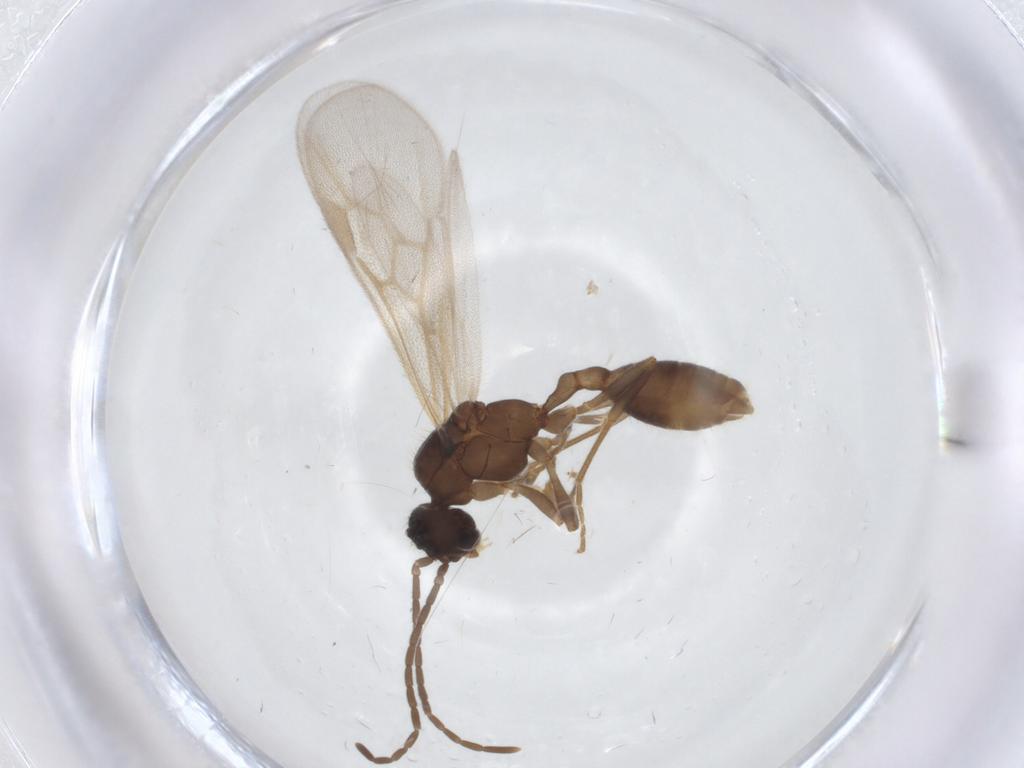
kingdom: Animalia
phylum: Arthropoda
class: Insecta
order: Hymenoptera
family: Formicidae
